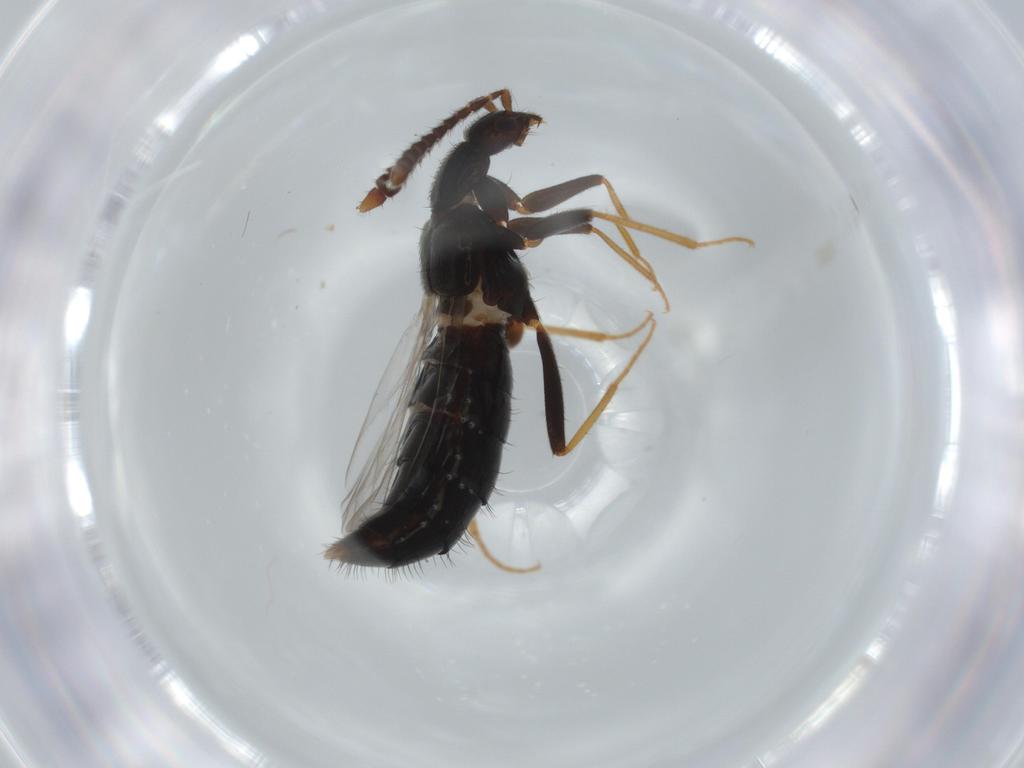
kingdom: Animalia
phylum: Arthropoda
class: Insecta
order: Coleoptera
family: Staphylinidae
